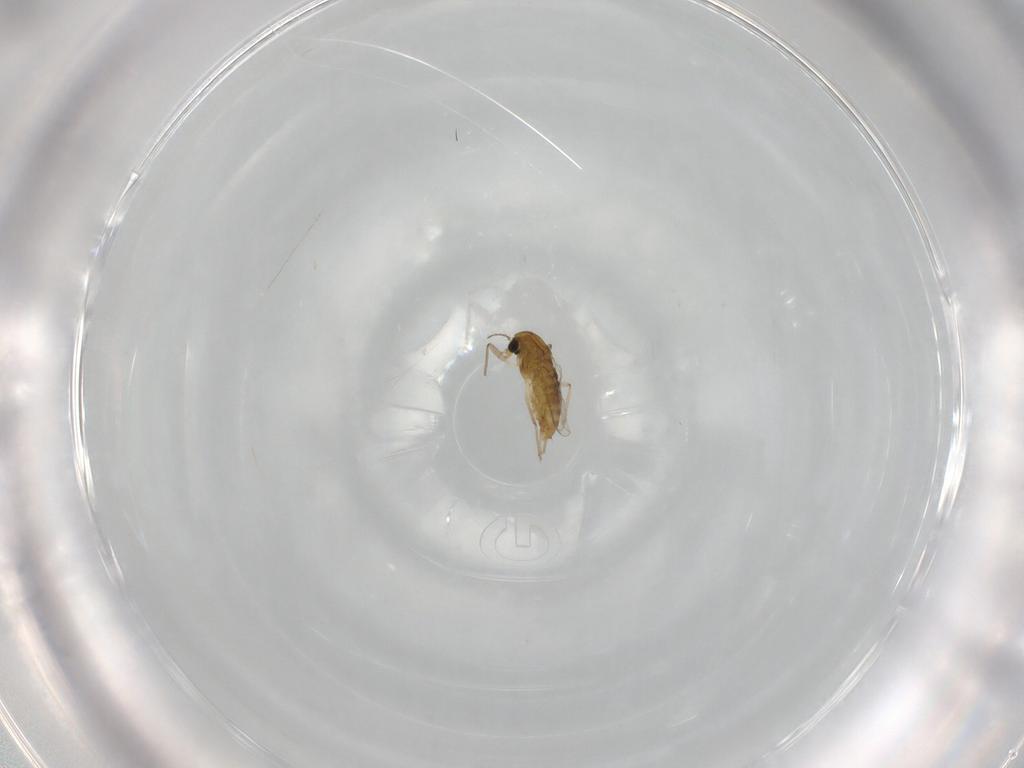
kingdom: Animalia
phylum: Arthropoda
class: Insecta
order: Diptera
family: Chironomidae
